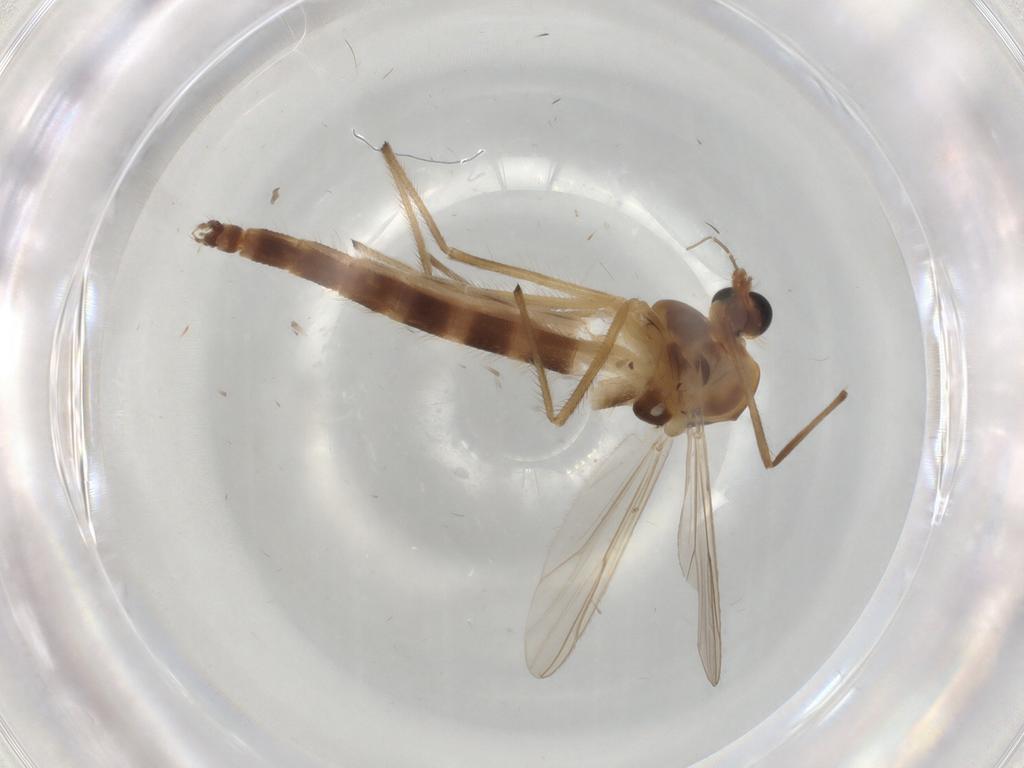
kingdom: Animalia
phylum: Arthropoda
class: Insecta
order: Diptera
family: Chironomidae
